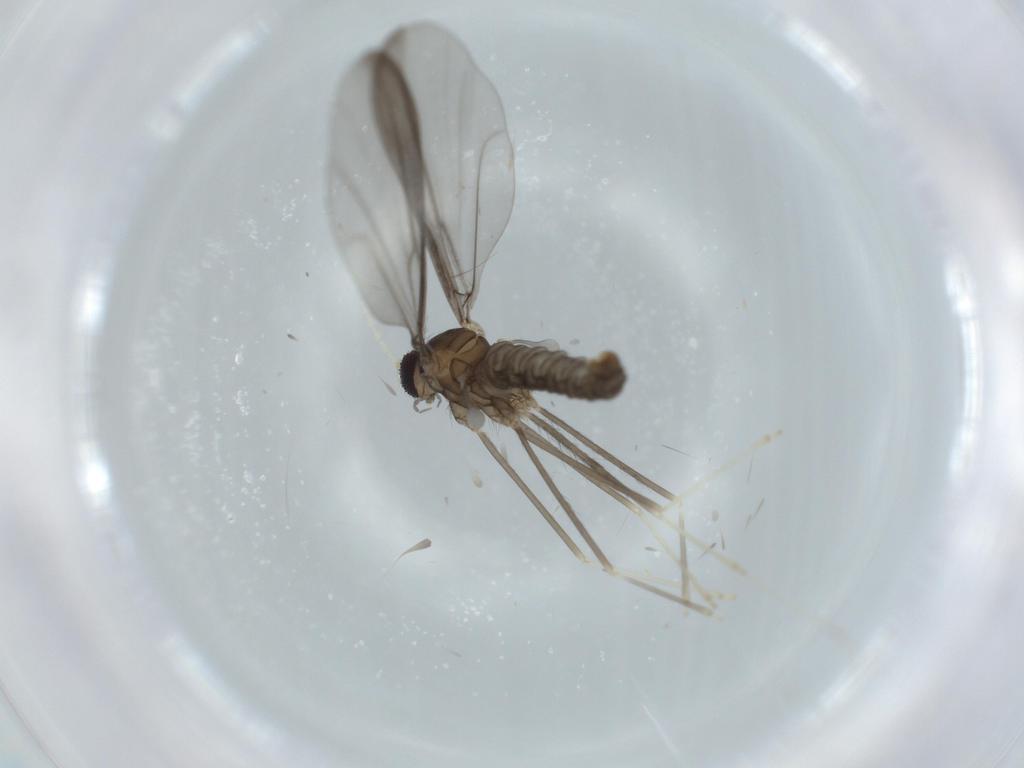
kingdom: Animalia
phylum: Arthropoda
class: Insecta
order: Diptera
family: Cecidomyiidae
